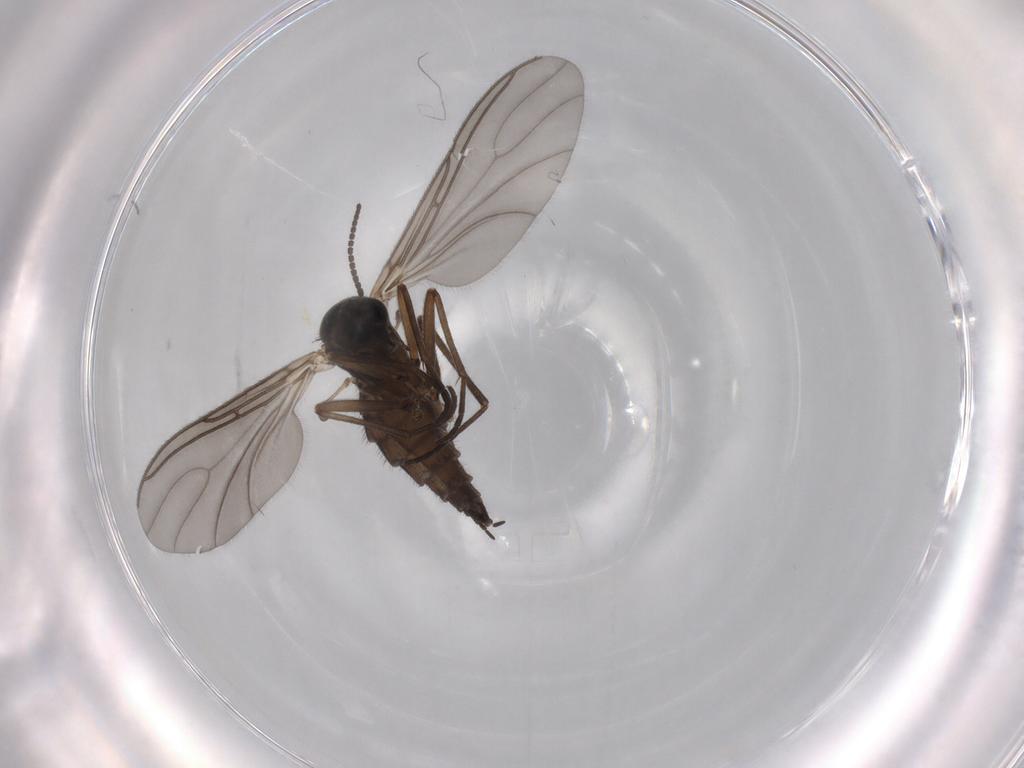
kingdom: Animalia
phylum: Arthropoda
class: Insecta
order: Diptera
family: Sciaridae
